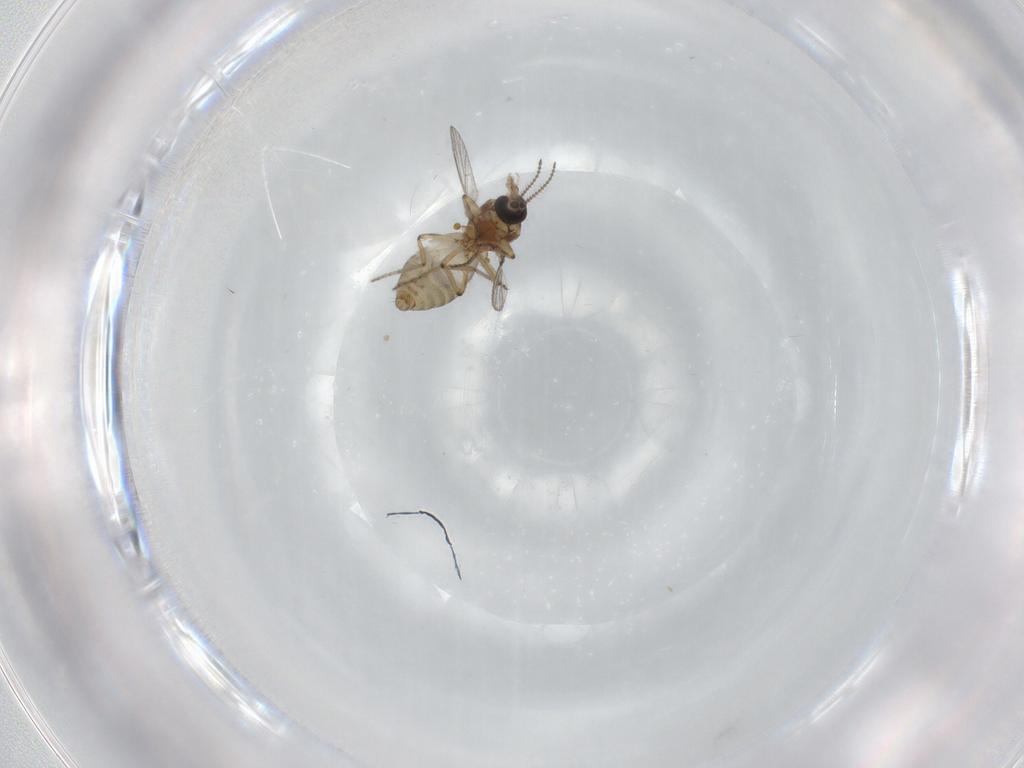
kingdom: Animalia
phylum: Arthropoda
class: Insecta
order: Diptera
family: Ceratopogonidae
